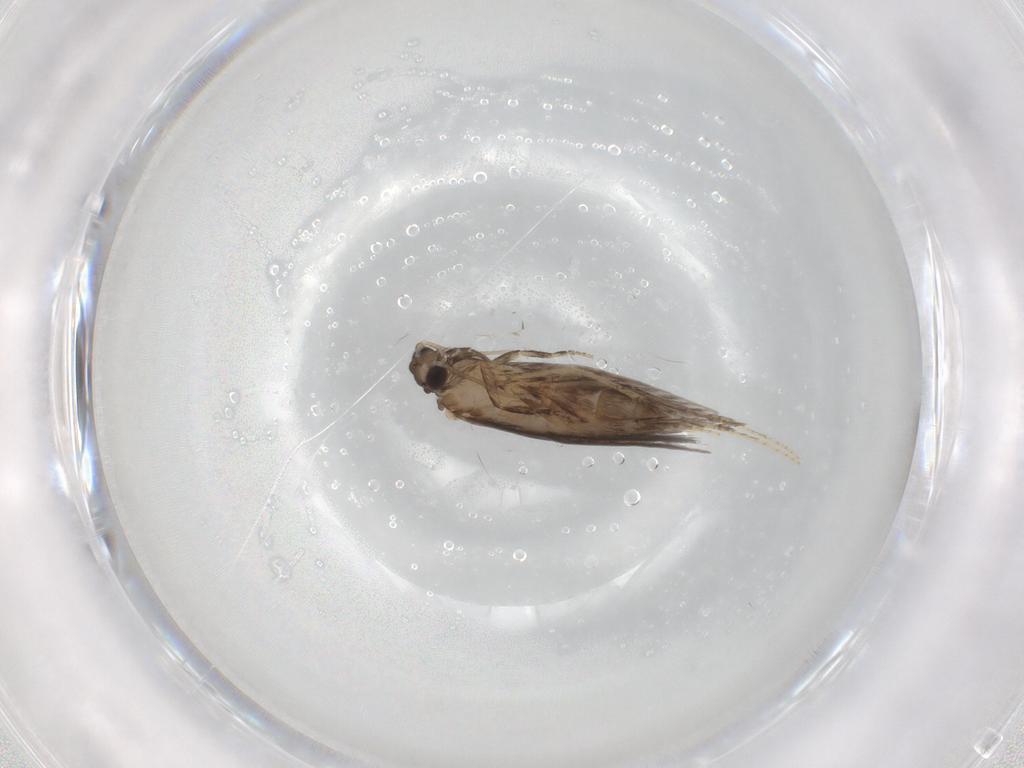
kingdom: Animalia
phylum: Arthropoda
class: Insecta
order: Trichoptera
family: Hydroptilidae
